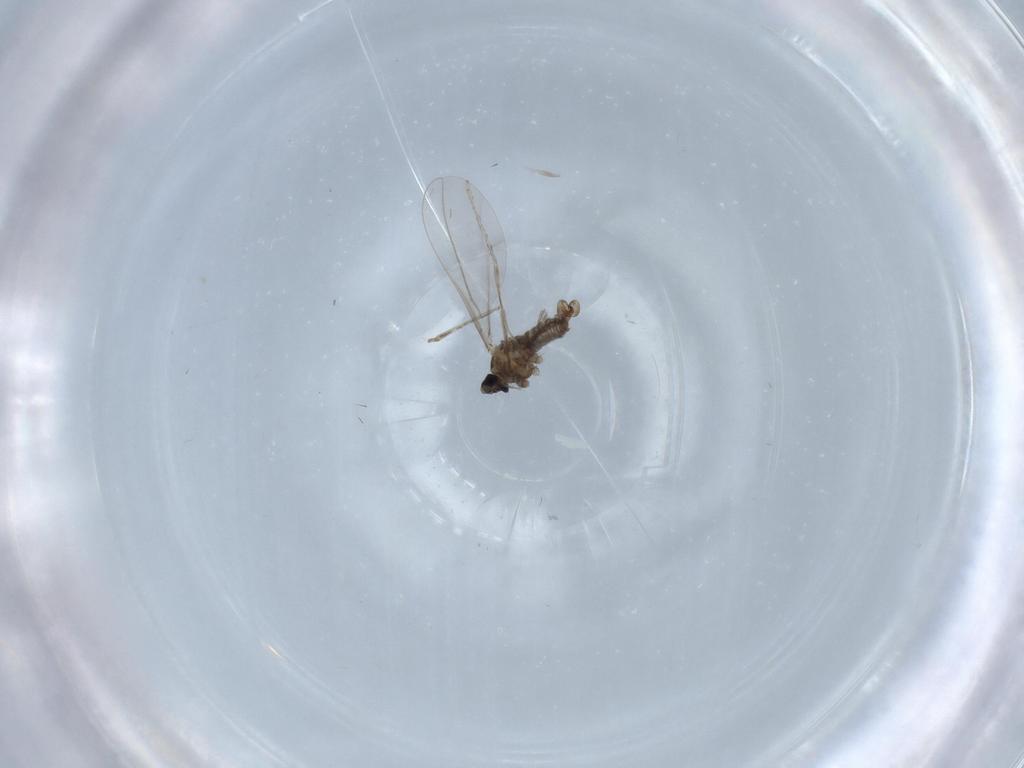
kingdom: Animalia
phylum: Arthropoda
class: Insecta
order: Diptera
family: Cecidomyiidae
